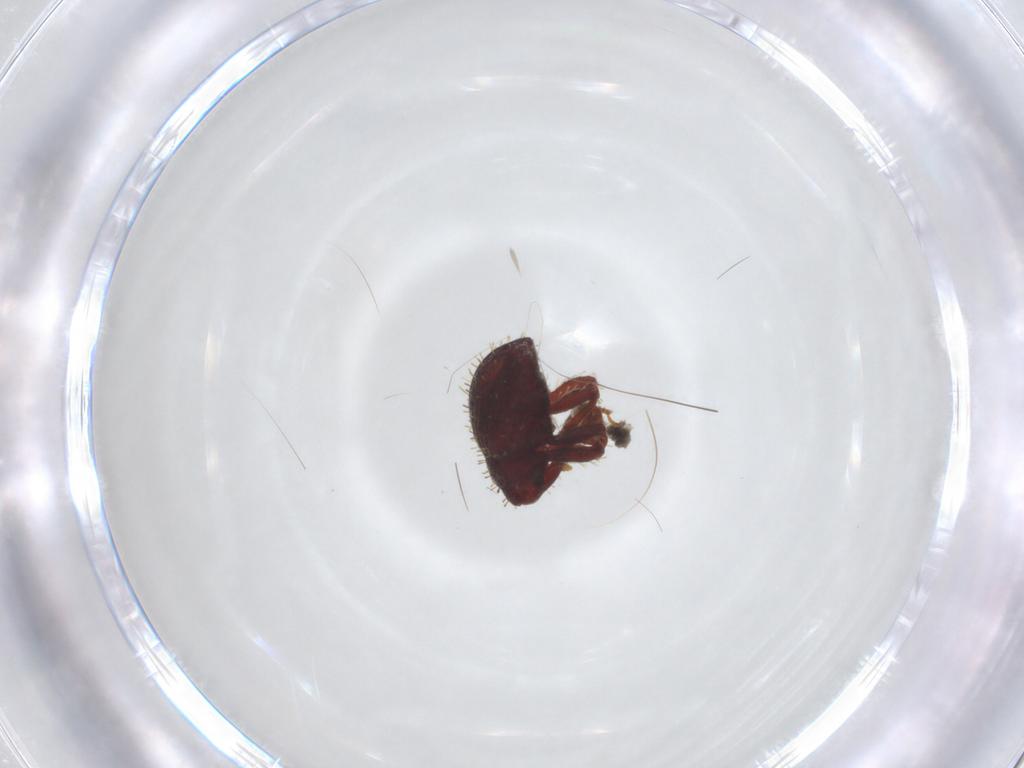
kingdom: Animalia
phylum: Arthropoda
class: Insecta
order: Coleoptera
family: Curculionidae
